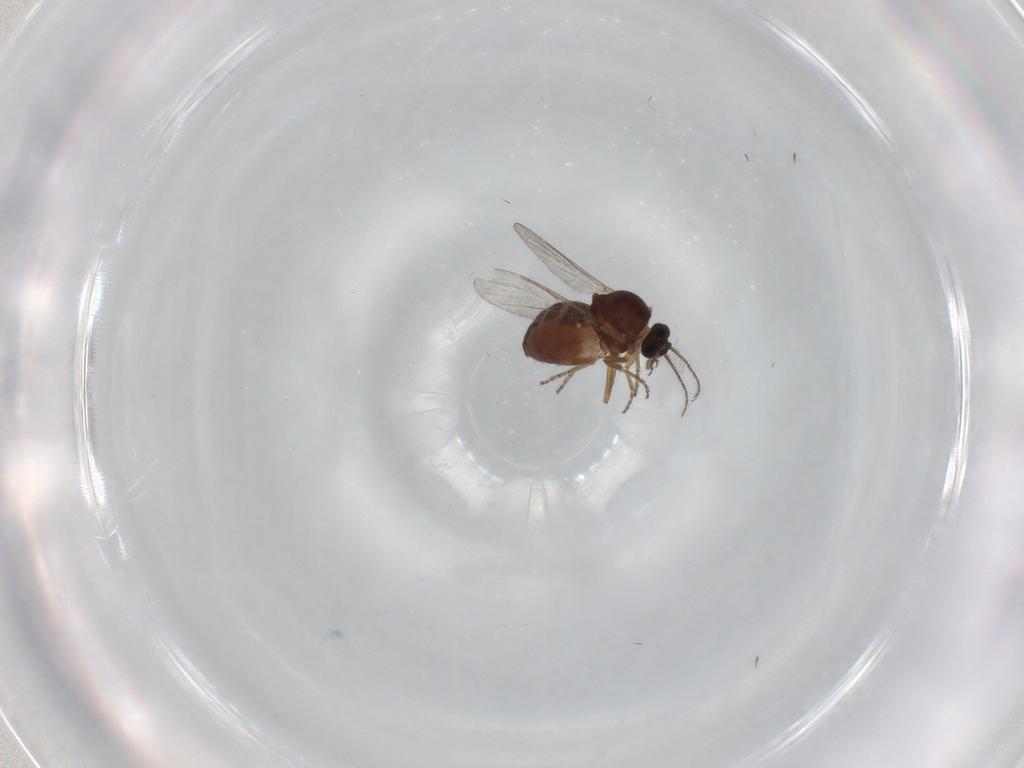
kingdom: Animalia
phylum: Arthropoda
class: Insecta
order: Diptera
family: Ceratopogonidae
